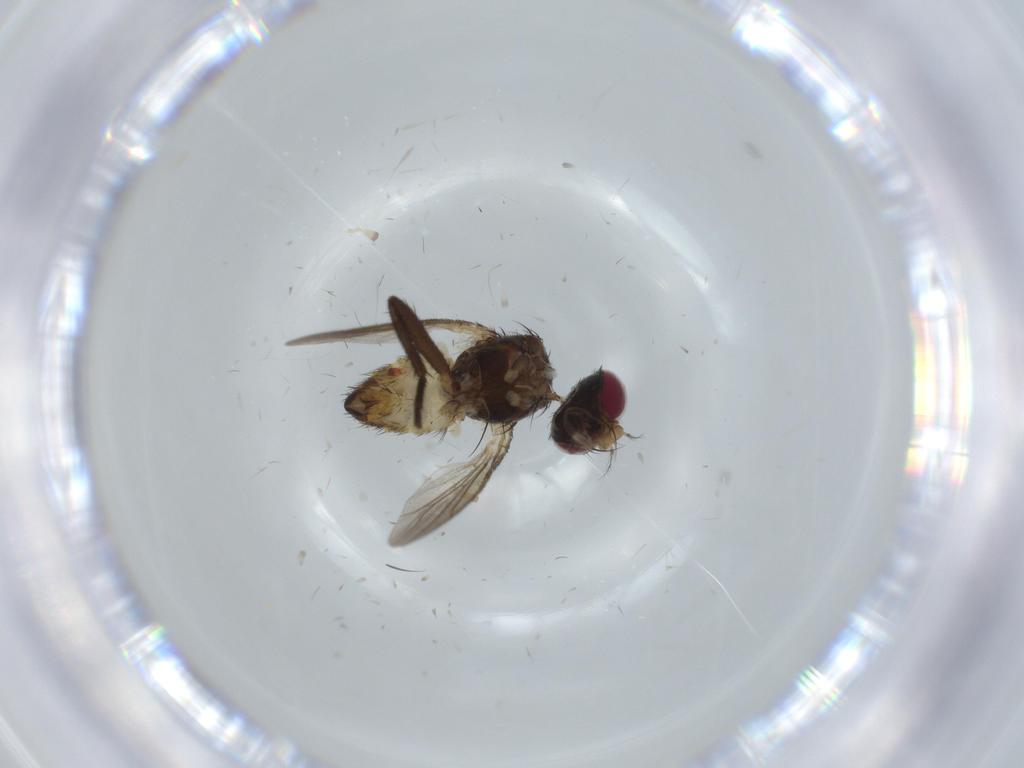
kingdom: Animalia
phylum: Arthropoda
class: Insecta
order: Diptera
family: Anthomyiidae
